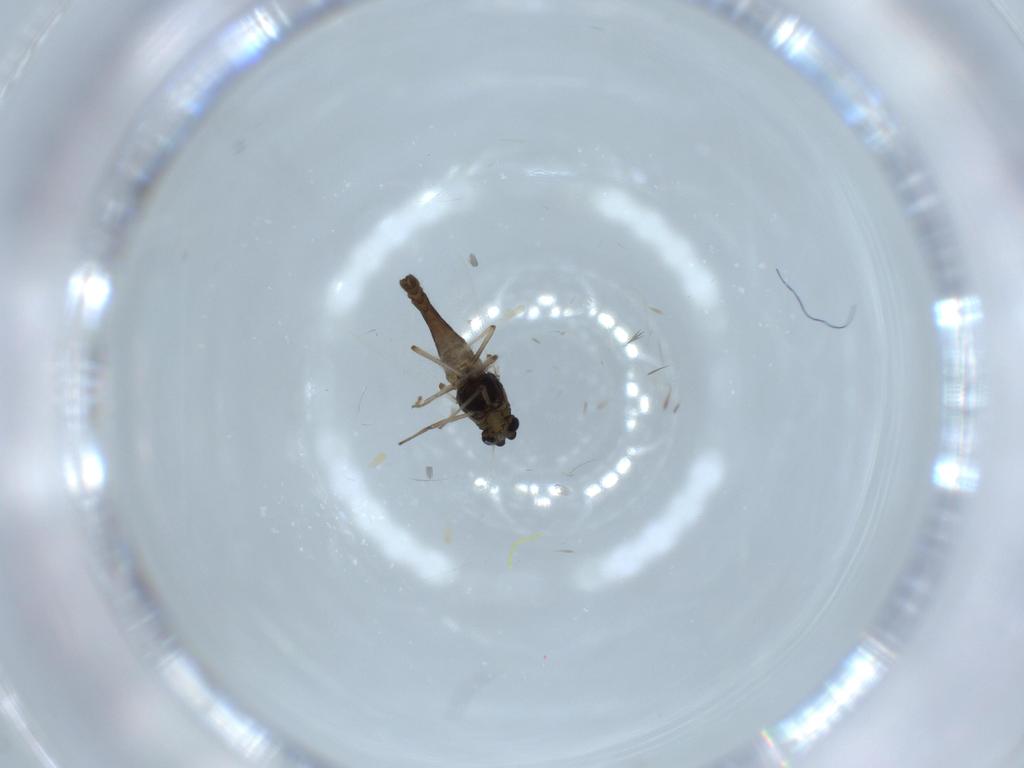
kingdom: Animalia
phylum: Arthropoda
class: Insecta
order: Diptera
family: Chironomidae
